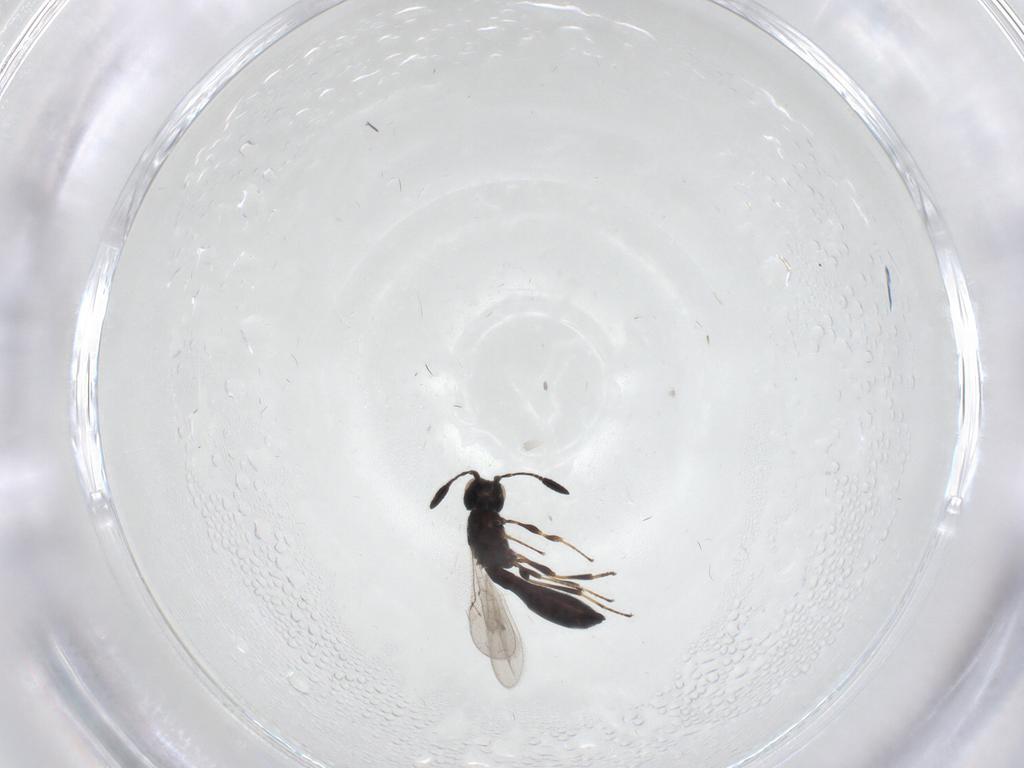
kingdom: Animalia
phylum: Arthropoda
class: Insecta
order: Hymenoptera
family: Scelionidae
